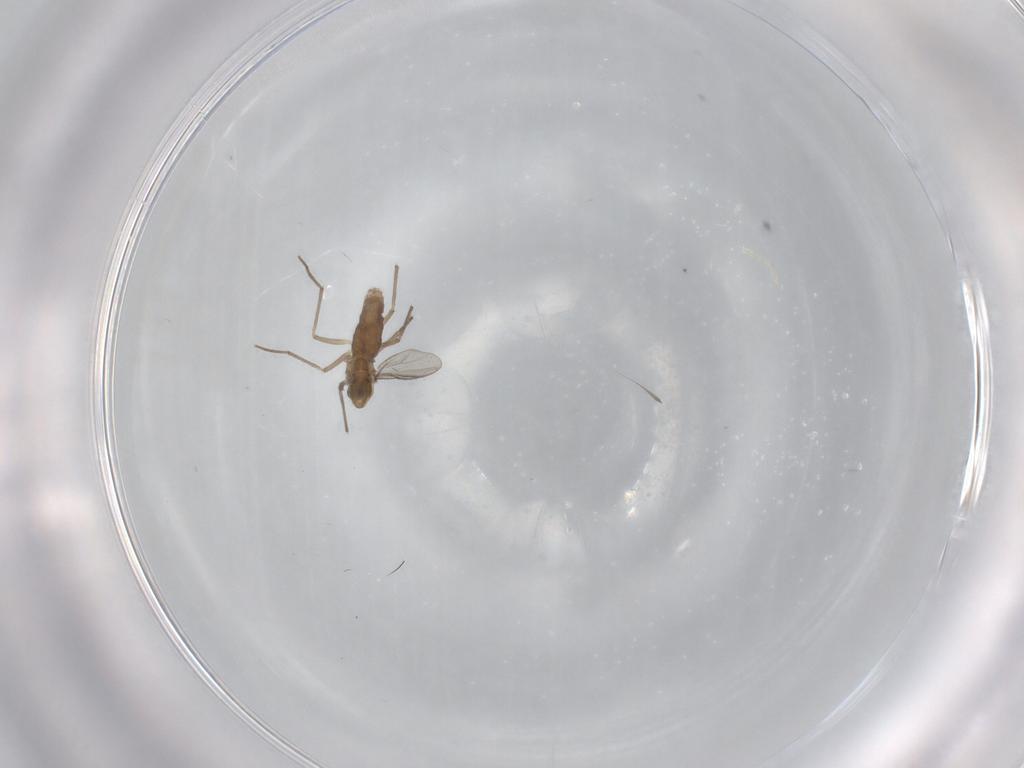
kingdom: Animalia
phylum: Arthropoda
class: Insecta
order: Diptera
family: Chironomidae
